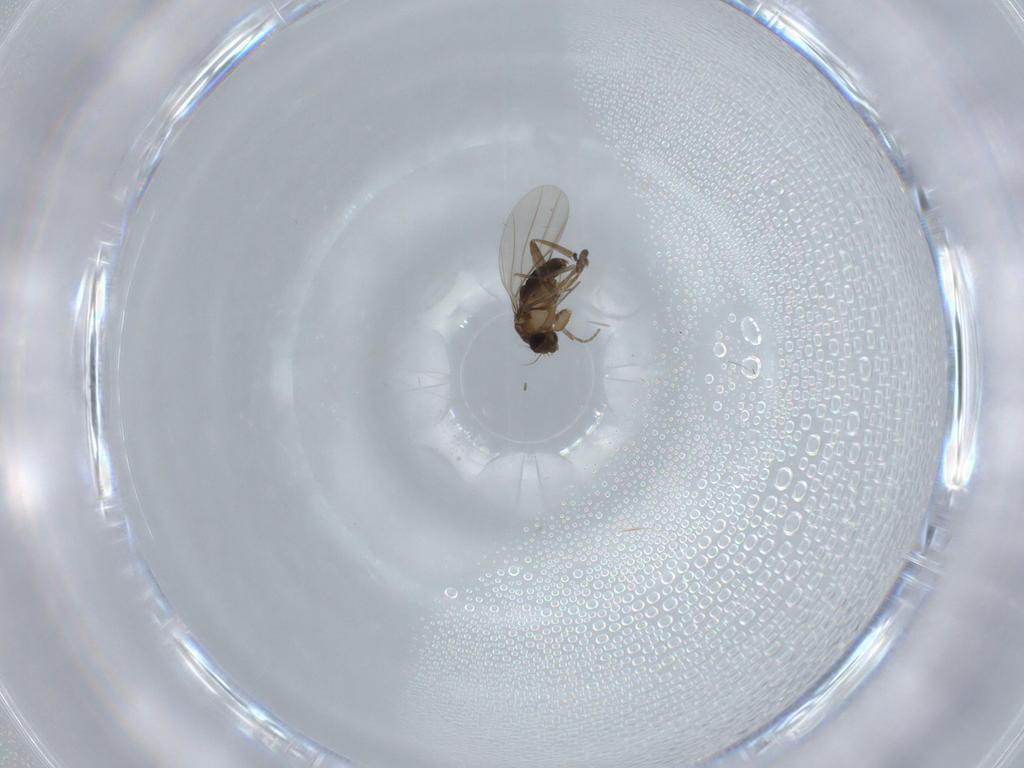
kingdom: Animalia
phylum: Arthropoda
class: Insecta
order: Diptera
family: Phoridae
